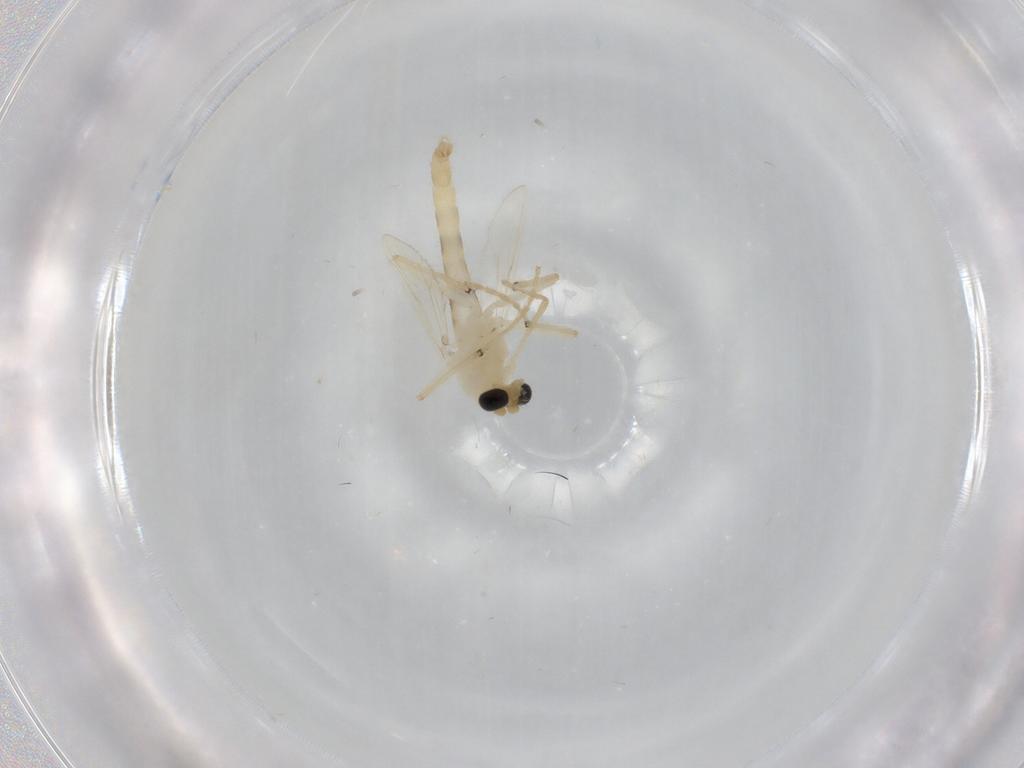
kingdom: Animalia
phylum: Arthropoda
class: Insecta
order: Diptera
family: Chironomidae
